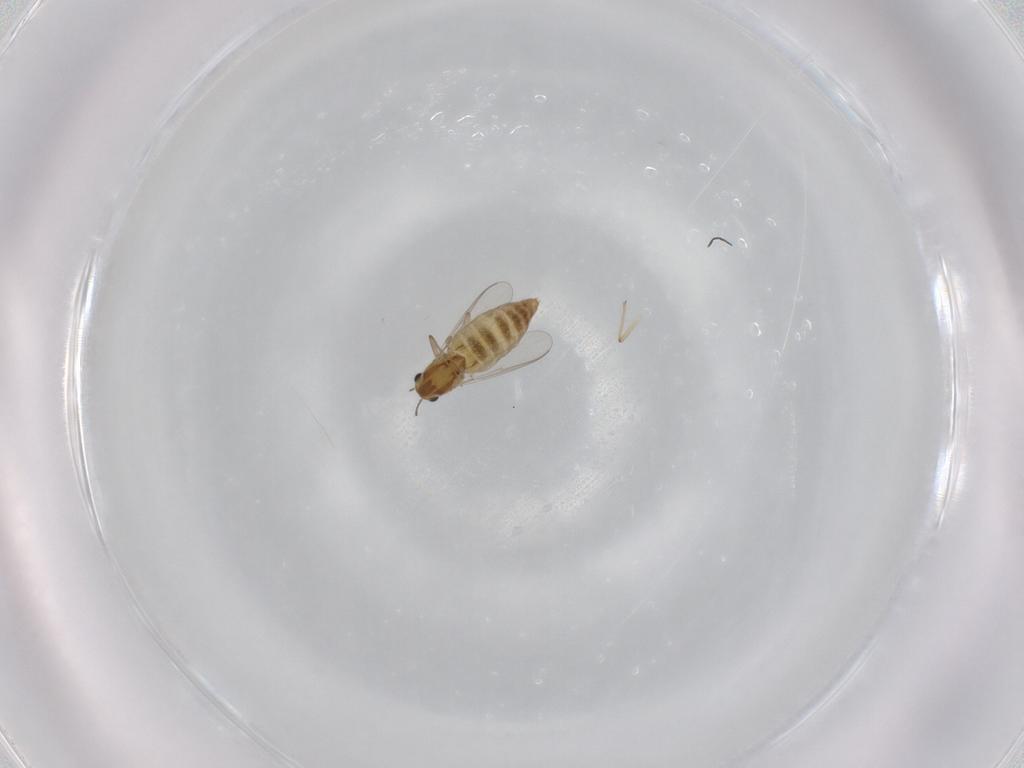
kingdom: Animalia
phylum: Arthropoda
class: Insecta
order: Diptera
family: Chironomidae
